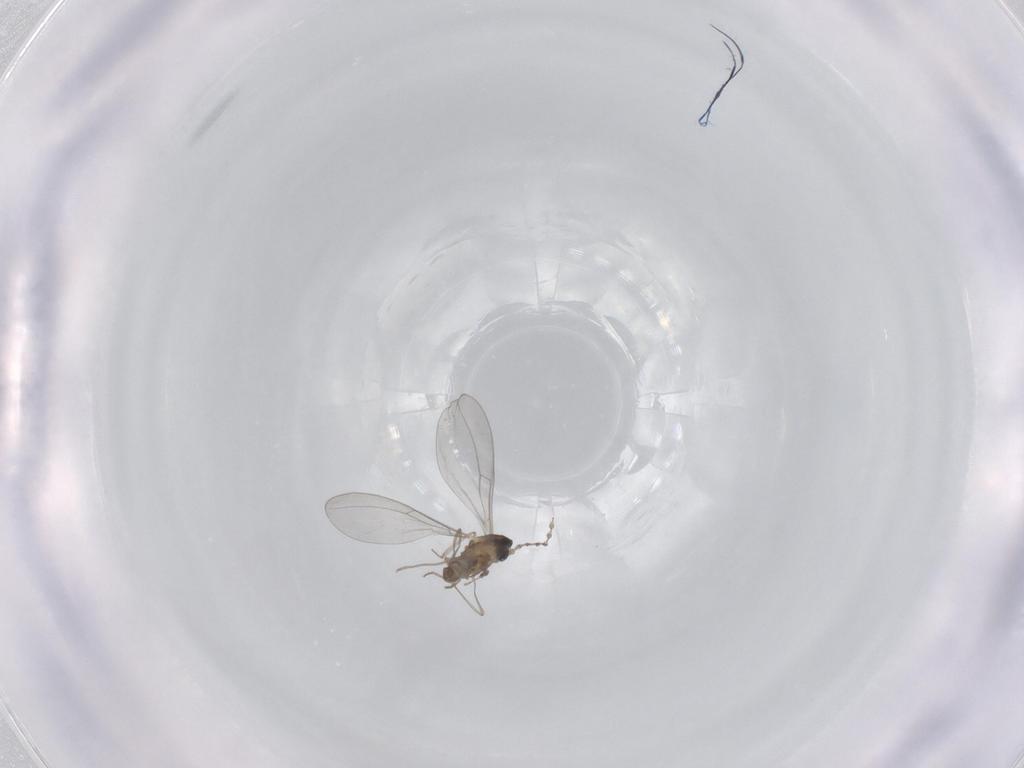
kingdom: Animalia
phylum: Arthropoda
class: Insecta
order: Diptera
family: Cecidomyiidae
